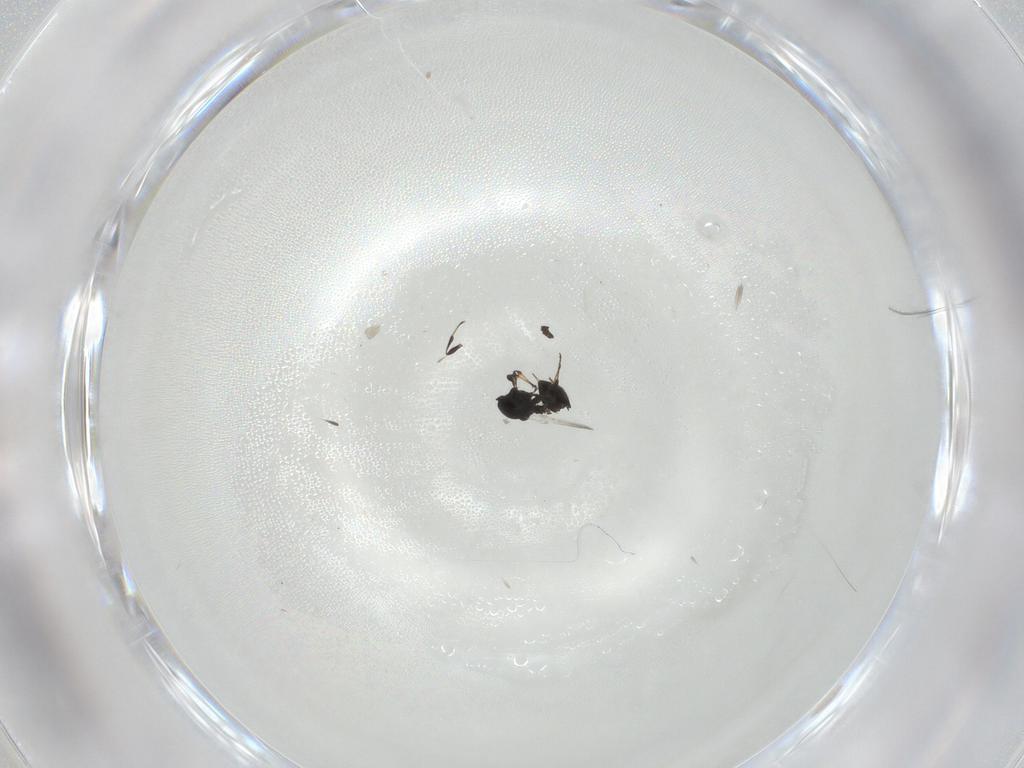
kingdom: Animalia
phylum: Arthropoda
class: Insecta
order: Hymenoptera
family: Platygastridae
